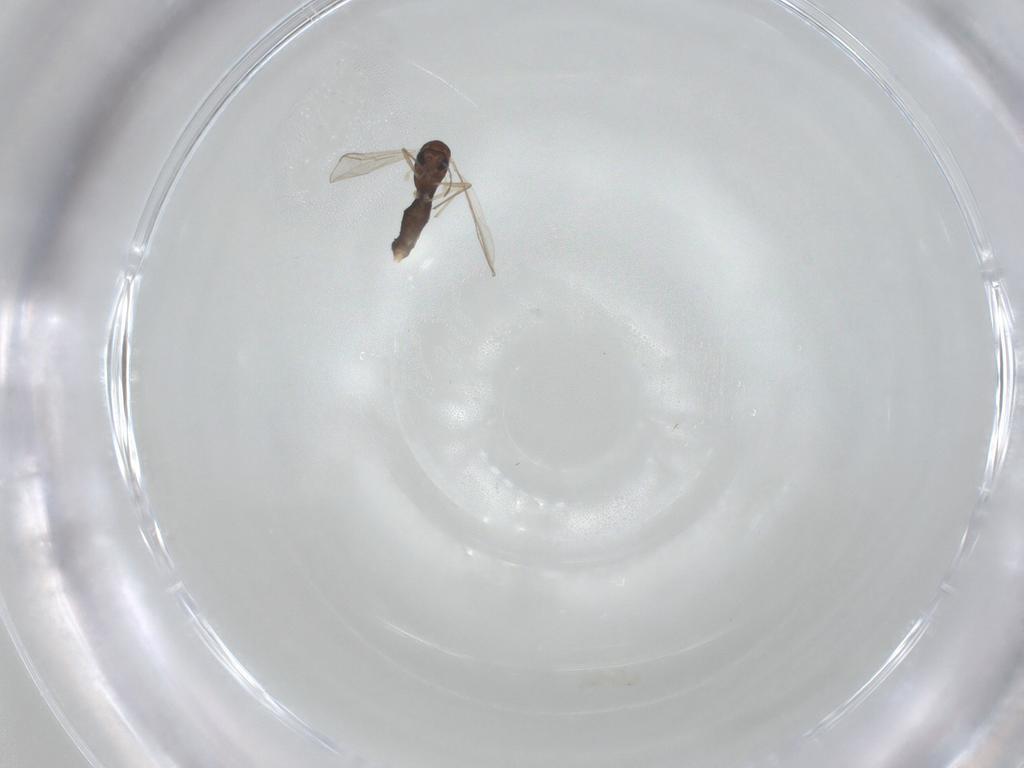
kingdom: Animalia
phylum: Arthropoda
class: Insecta
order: Diptera
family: Chironomidae
